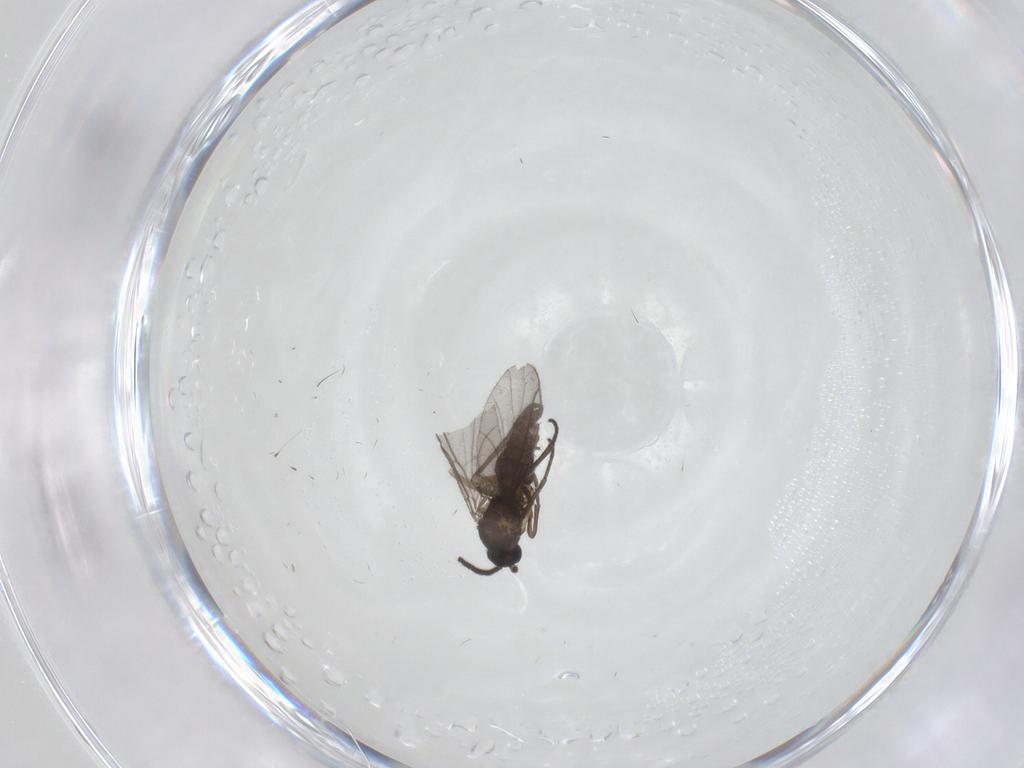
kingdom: Animalia
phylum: Arthropoda
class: Insecta
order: Diptera
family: Sciaridae
